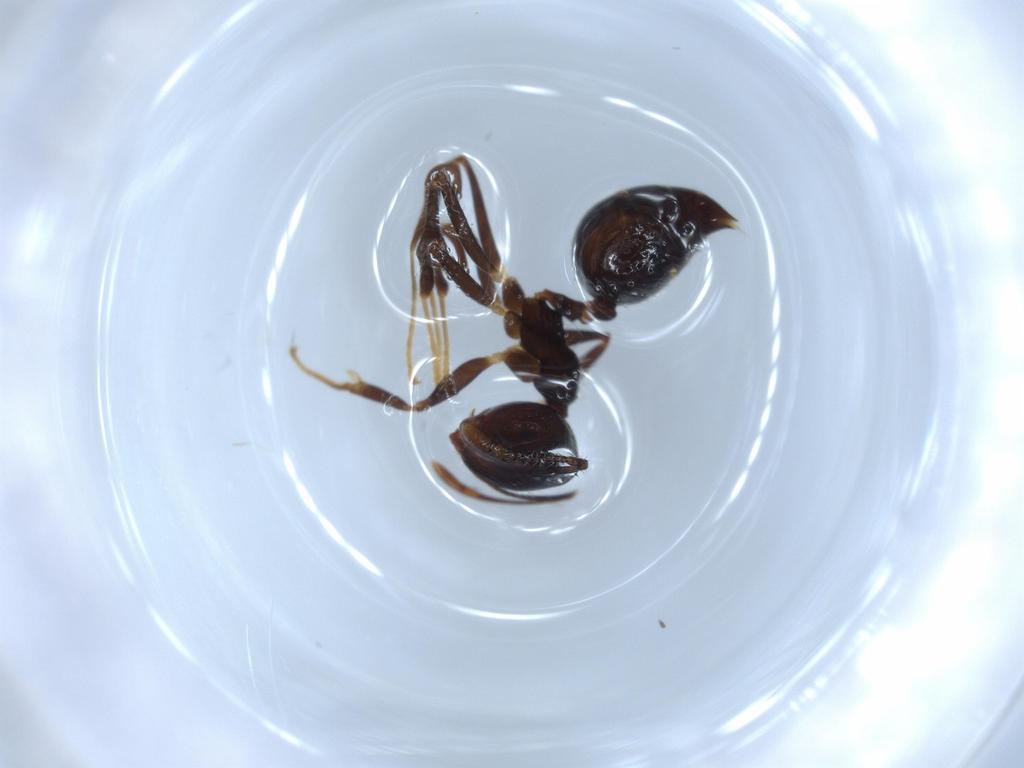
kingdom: Animalia
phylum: Arthropoda
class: Insecta
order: Hymenoptera
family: Formicidae
